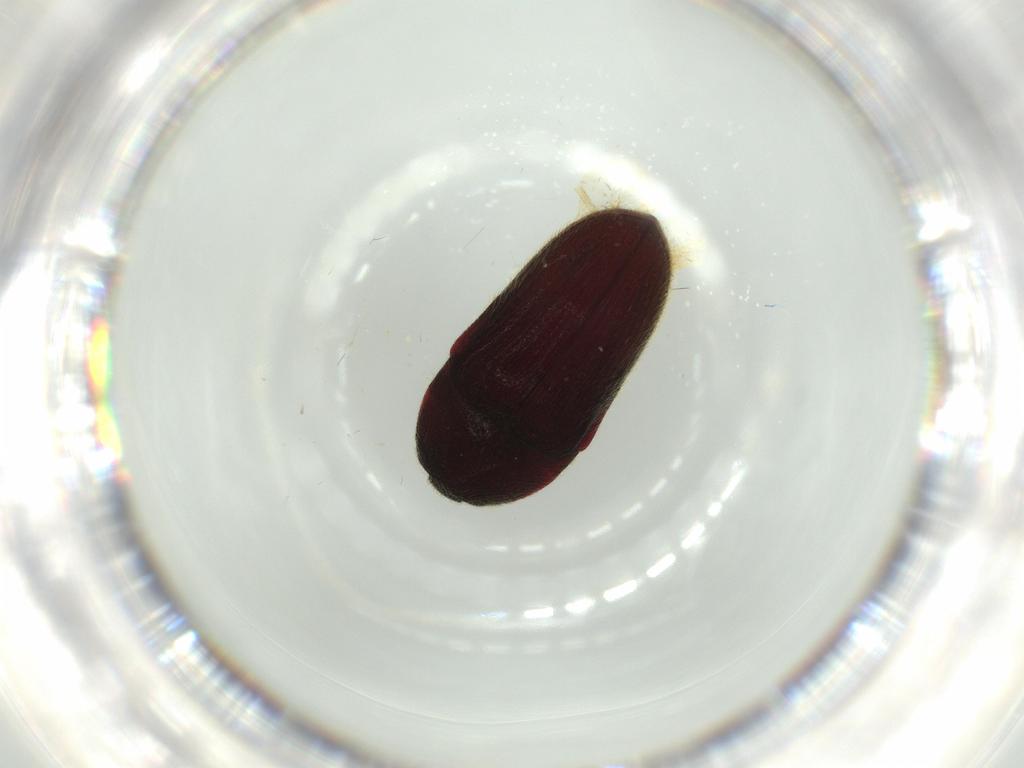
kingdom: Animalia
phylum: Arthropoda
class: Insecta
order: Coleoptera
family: Throscidae
